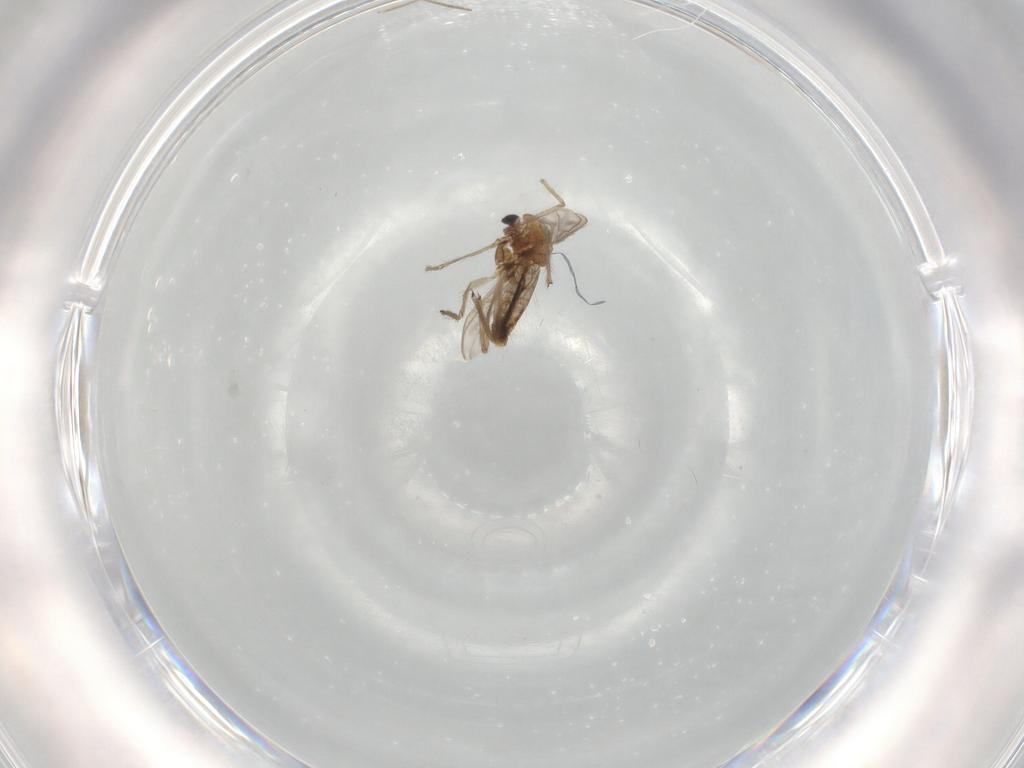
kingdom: Animalia
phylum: Arthropoda
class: Insecta
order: Diptera
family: Chironomidae
